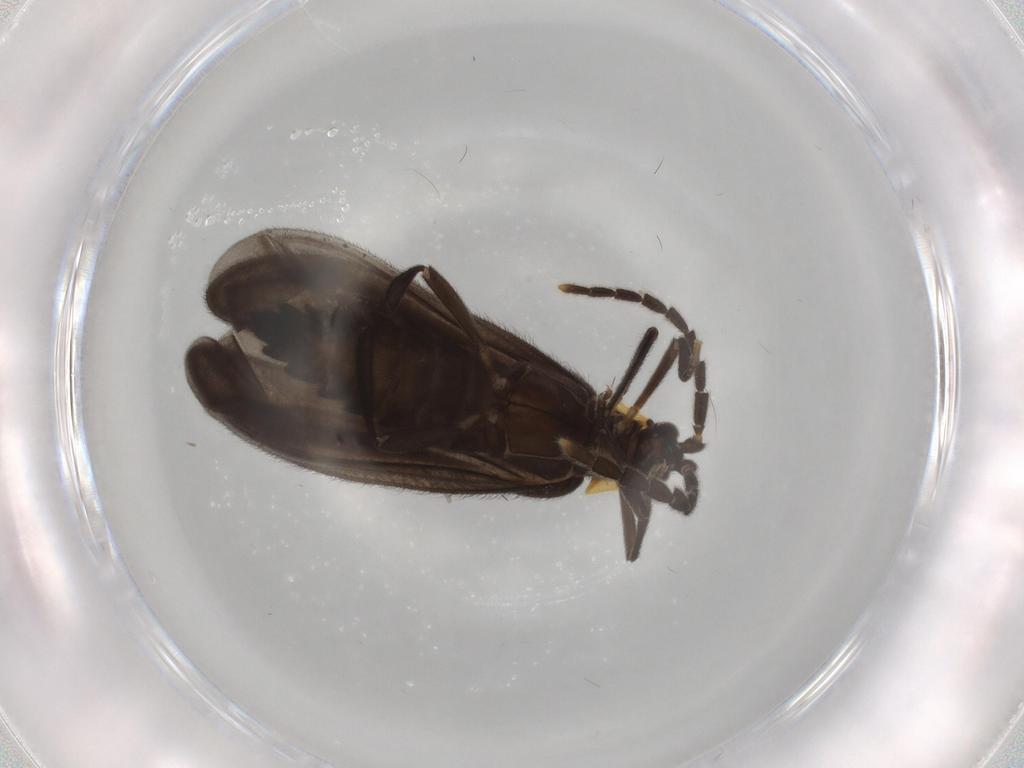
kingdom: Animalia
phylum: Arthropoda
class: Insecta
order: Coleoptera
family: Lycidae
